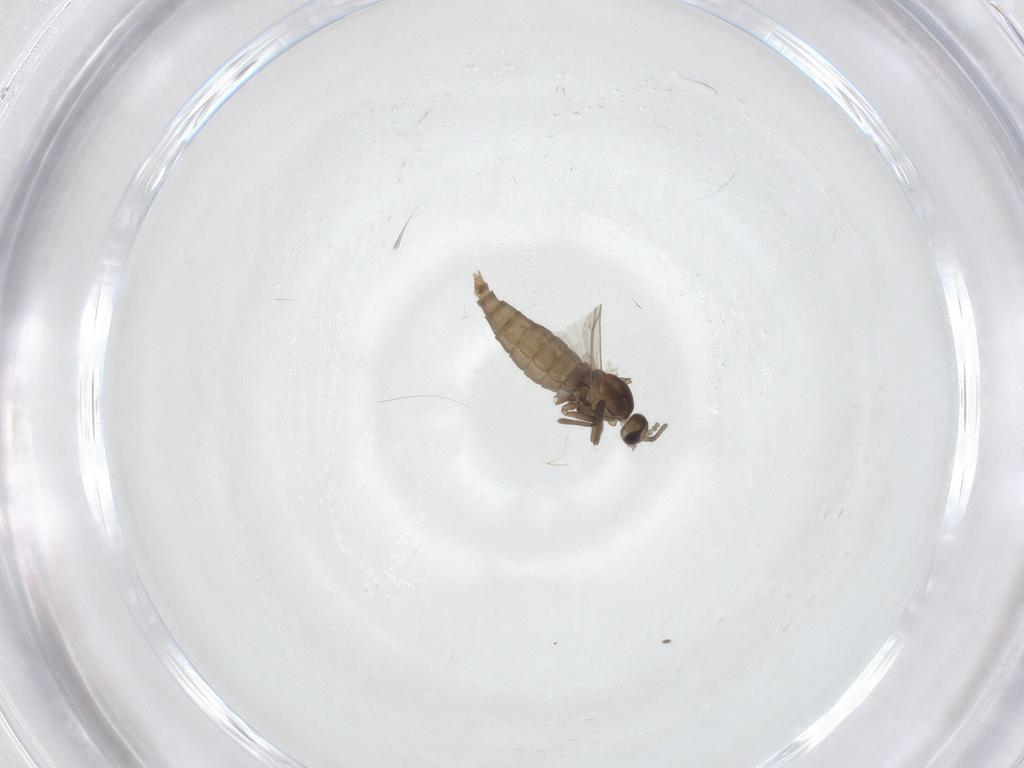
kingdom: Animalia
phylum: Arthropoda
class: Insecta
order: Diptera
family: Cecidomyiidae
